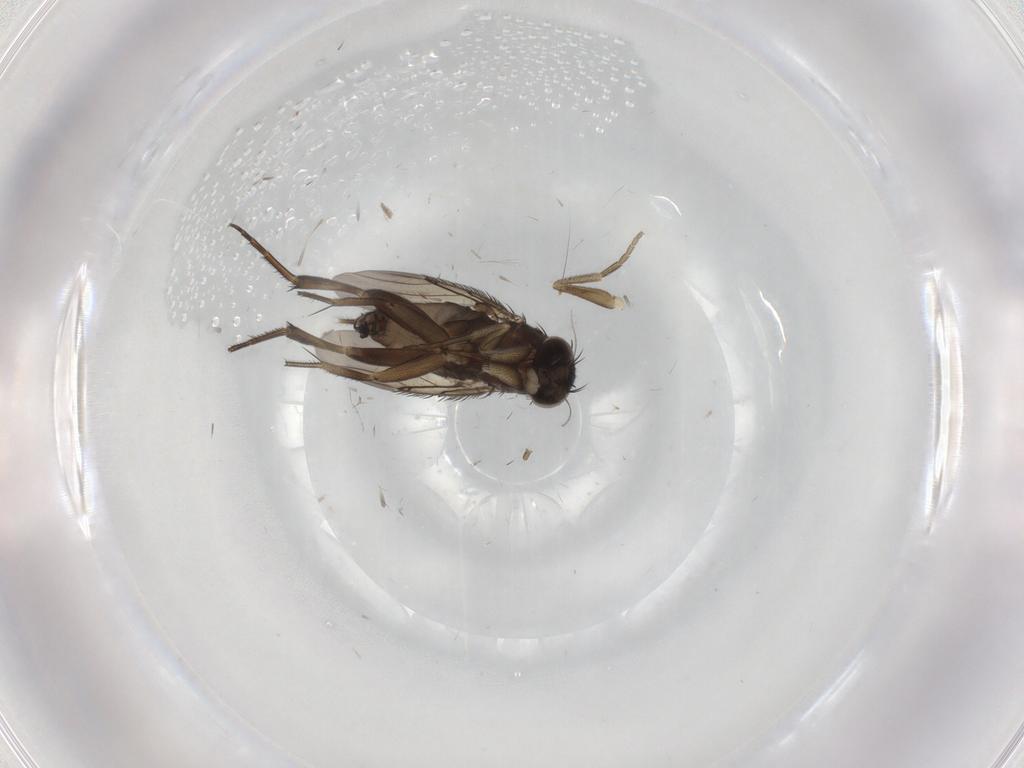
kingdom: Animalia
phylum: Arthropoda
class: Insecta
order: Diptera
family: Phoridae
